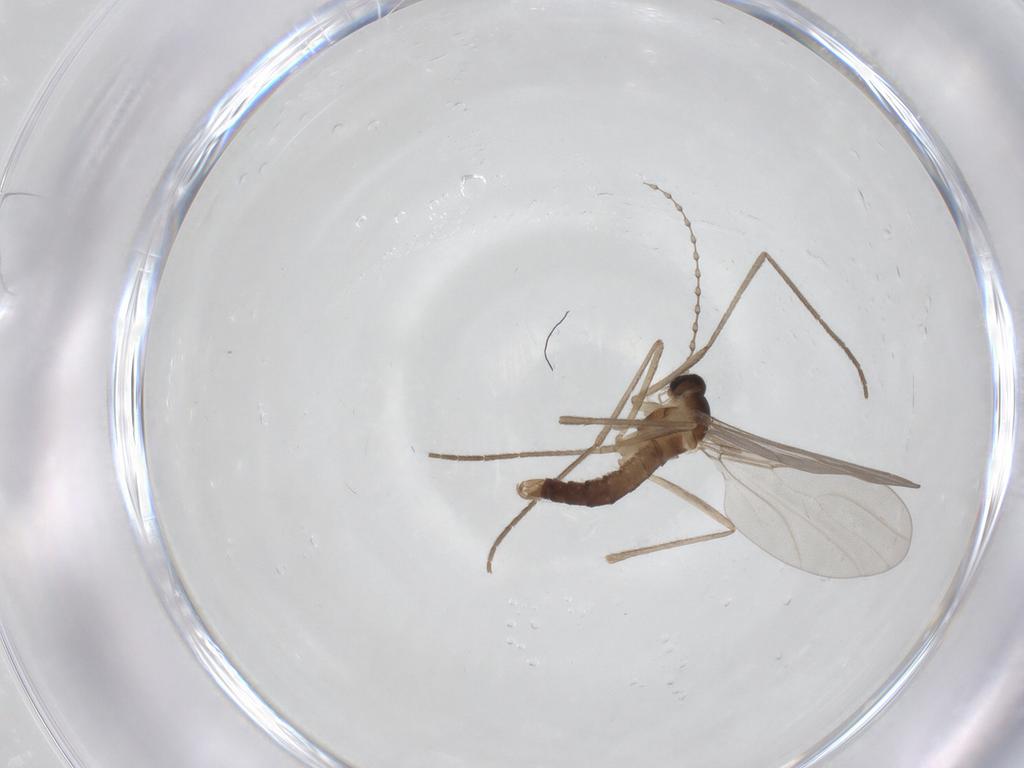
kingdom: Animalia
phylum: Arthropoda
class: Insecta
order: Diptera
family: Cecidomyiidae
